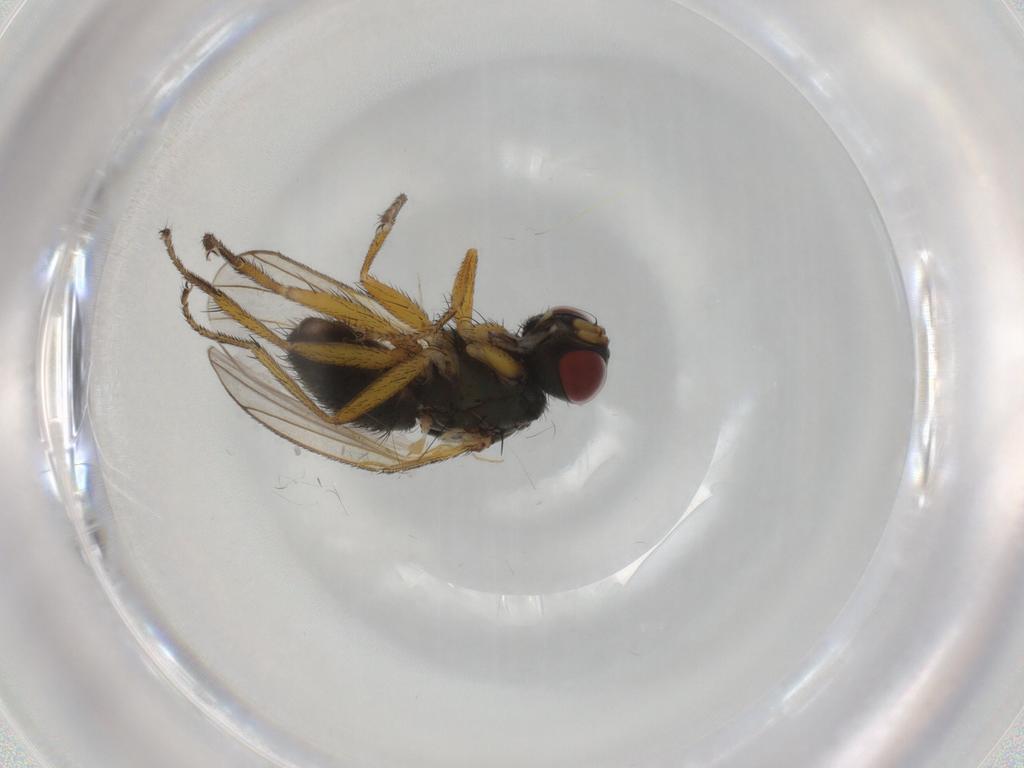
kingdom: Animalia
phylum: Arthropoda
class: Insecta
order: Diptera
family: Muscidae
